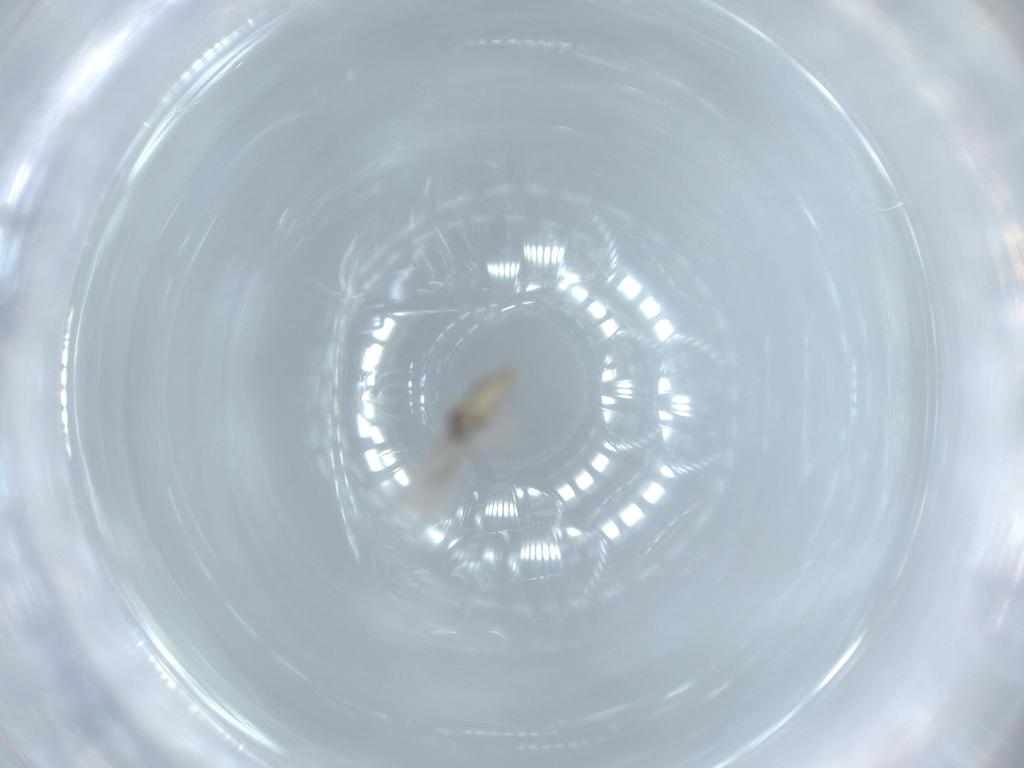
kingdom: Animalia
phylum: Arthropoda
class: Insecta
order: Diptera
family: Cecidomyiidae
